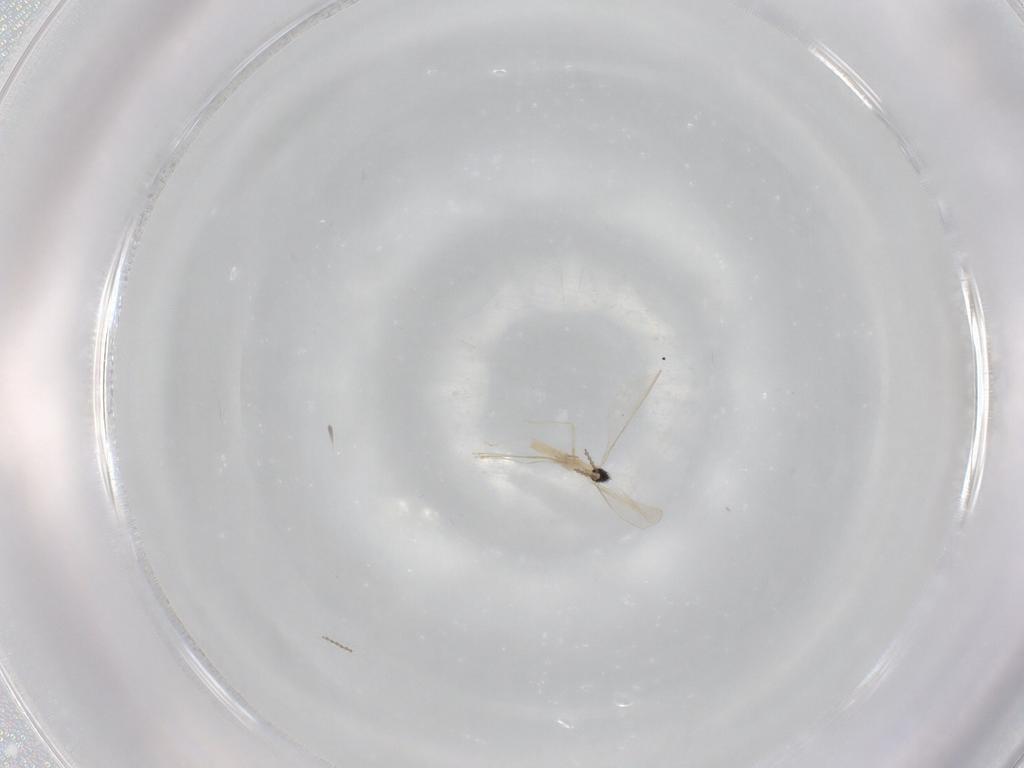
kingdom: Animalia
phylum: Arthropoda
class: Insecta
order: Diptera
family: Cecidomyiidae
